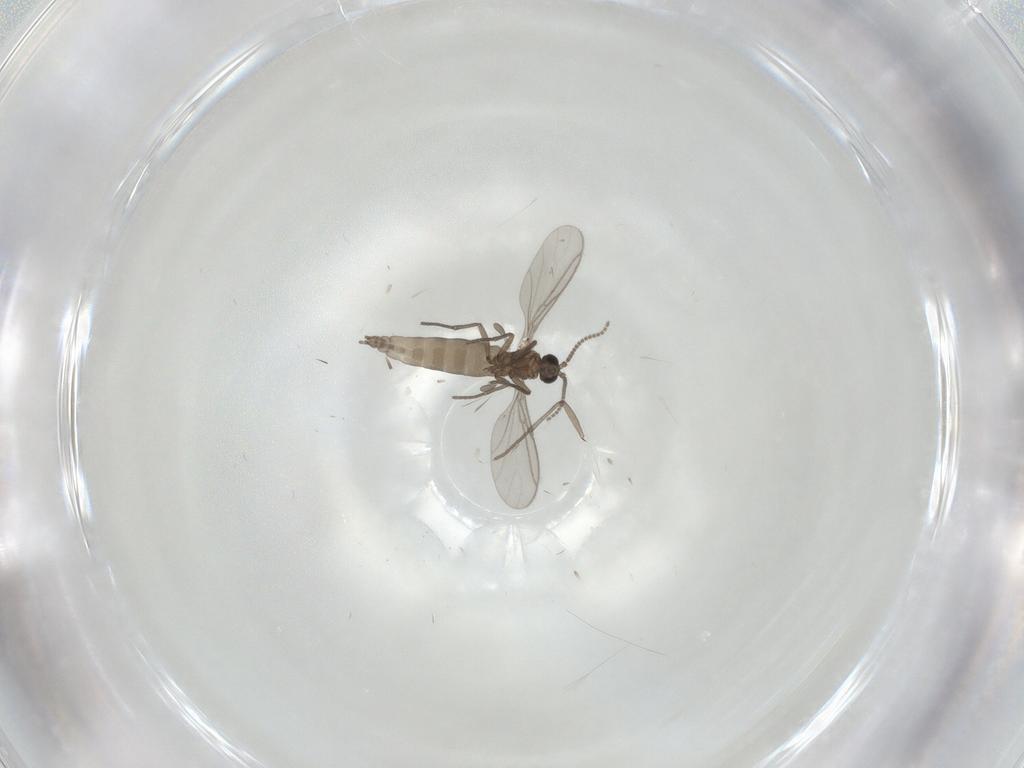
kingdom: Animalia
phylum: Arthropoda
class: Insecta
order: Diptera
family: Cecidomyiidae
